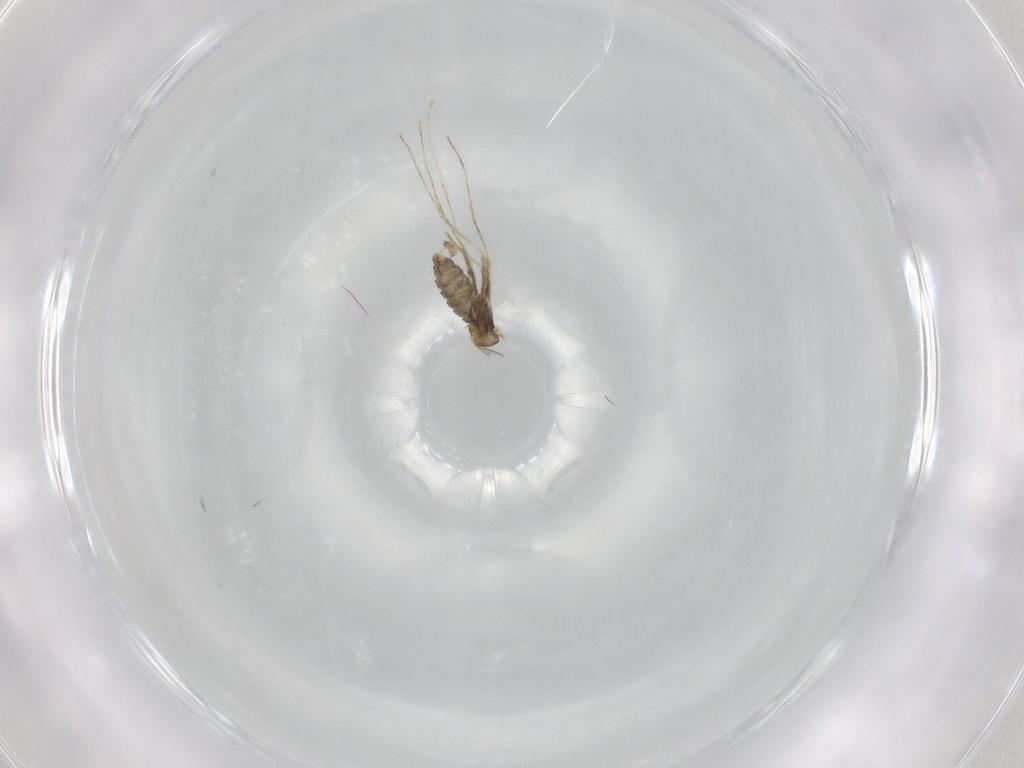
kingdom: Animalia
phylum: Arthropoda
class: Insecta
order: Diptera
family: Cecidomyiidae
